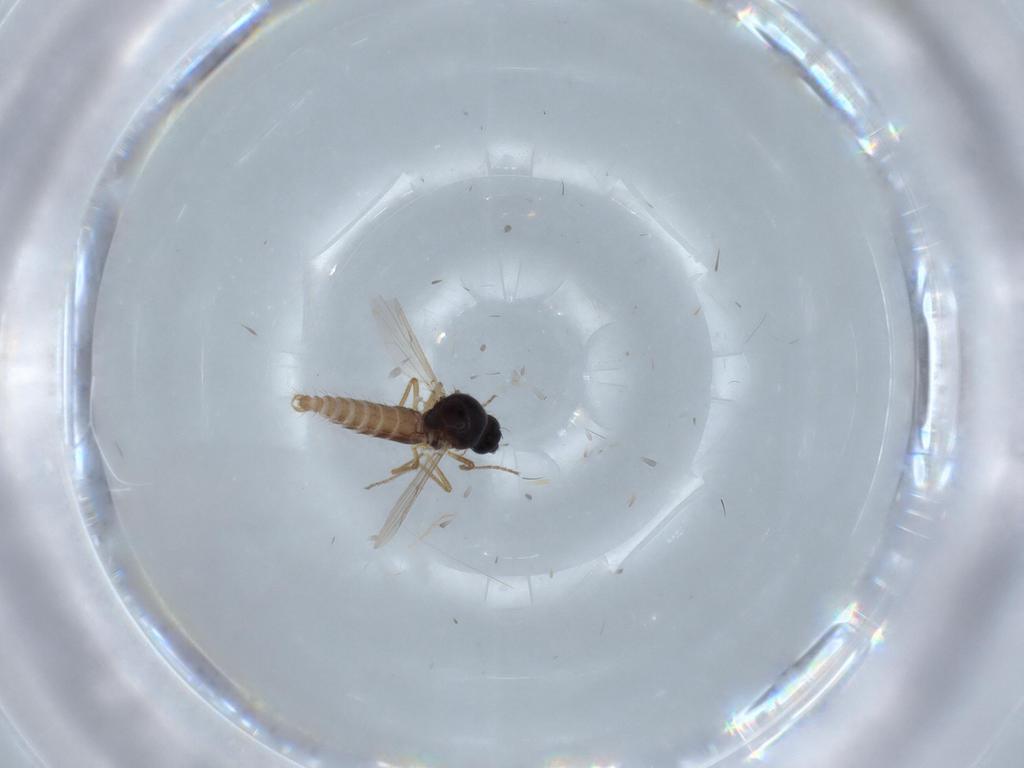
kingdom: Animalia
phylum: Arthropoda
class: Insecta
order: Diptera
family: Ceratopogonidae
